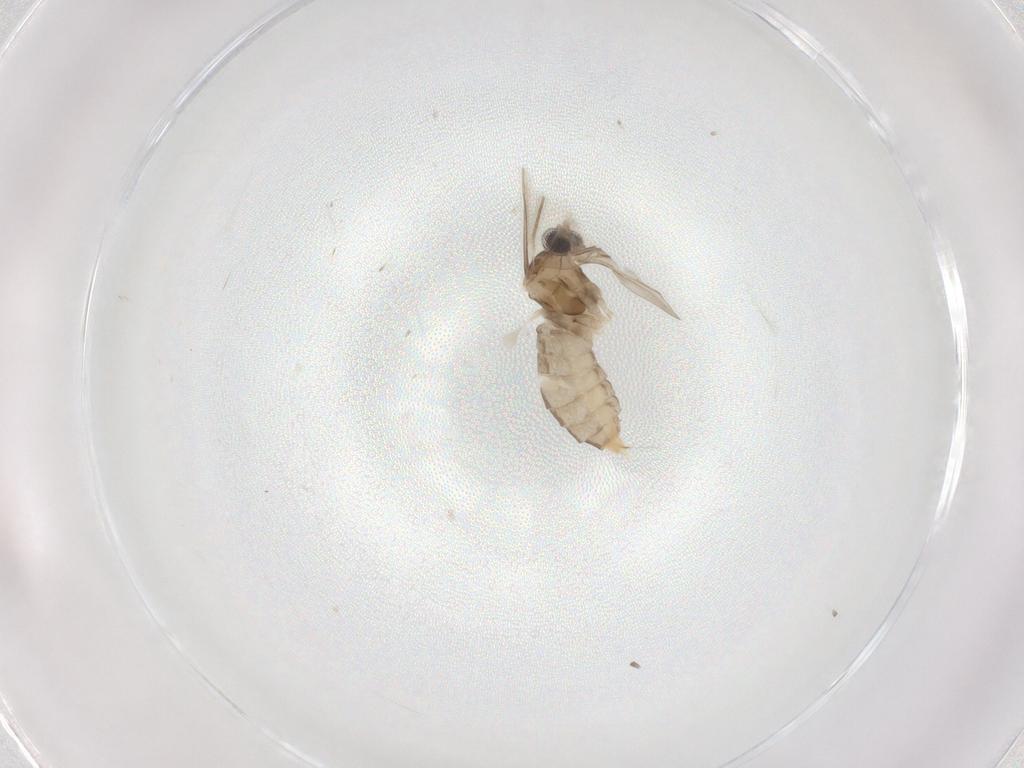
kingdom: Animalia
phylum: Arthropoda
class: Insecta
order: Diptera
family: Cecidomyiidae
